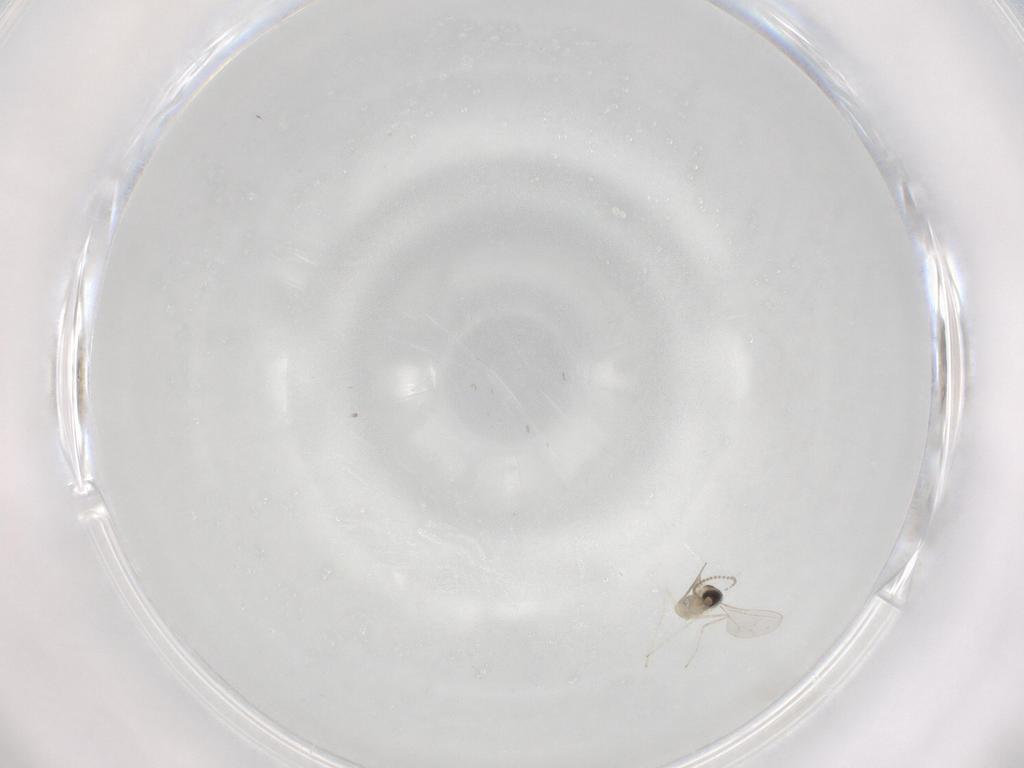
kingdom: Animalia
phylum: Arthropoda
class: Insecta
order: Diptera
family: Cecidomyiidae
